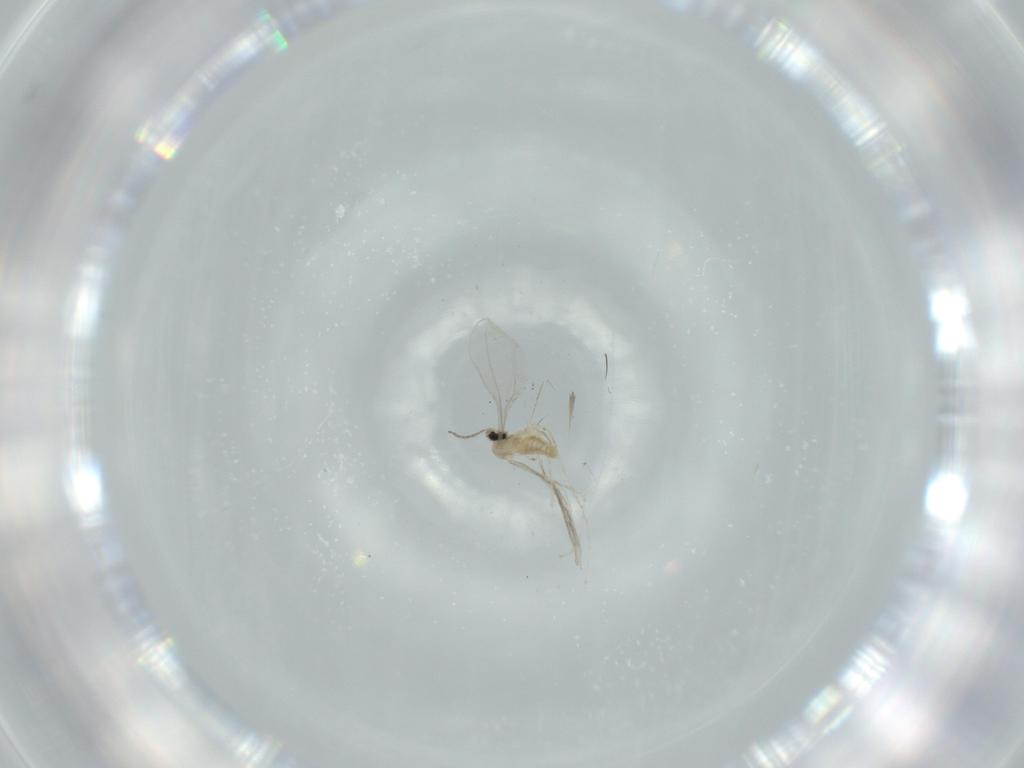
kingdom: Animalia
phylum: Arthropoda
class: Insecta
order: Diptera
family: Cecidomyiidae
